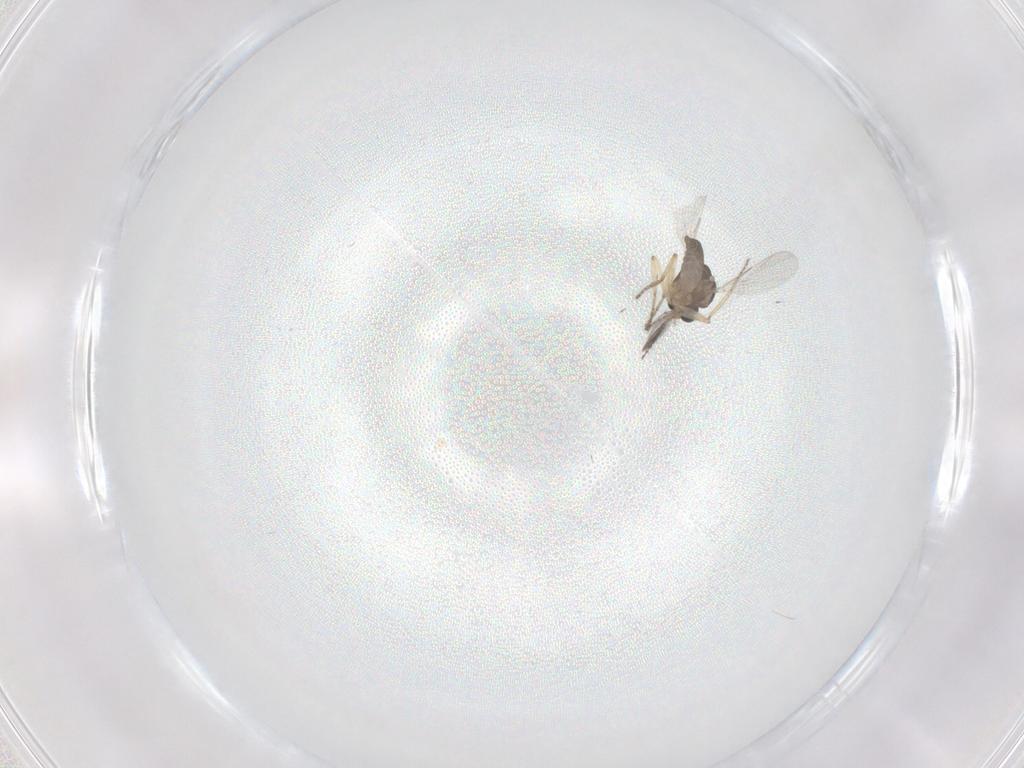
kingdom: Animalia
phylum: Arthropoda
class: Insecta
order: Diptera
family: Ceratopogonidae
